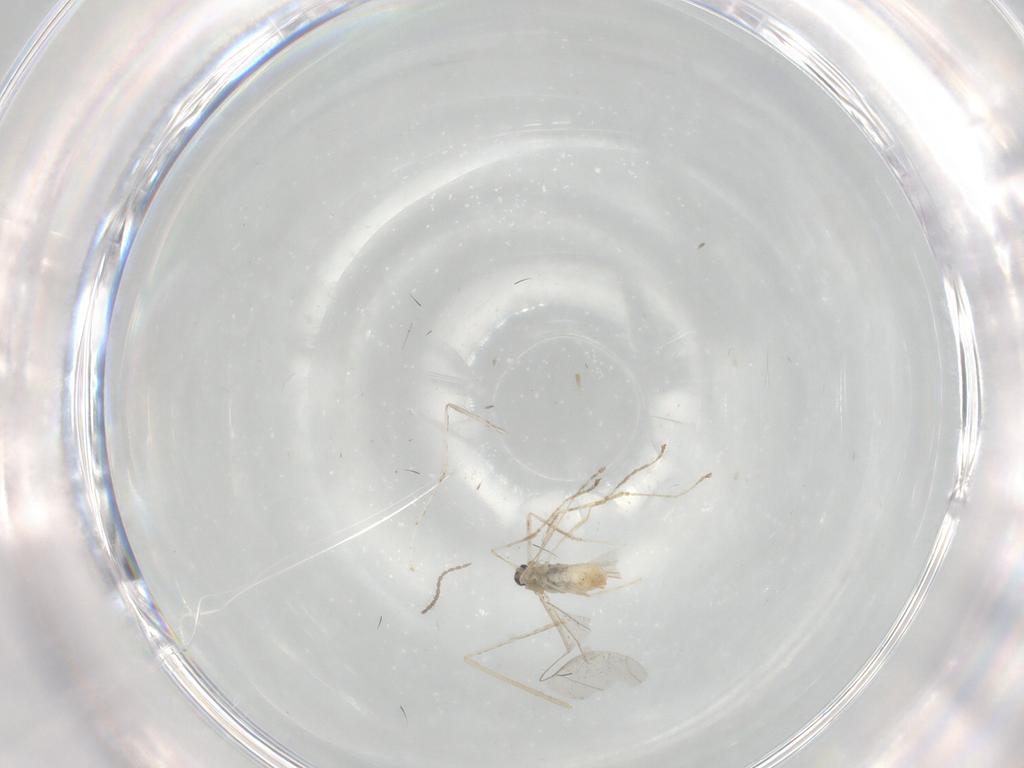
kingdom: Animalia
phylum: Arthropoda
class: Insecta
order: Diptera
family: Cecidomyiidae
